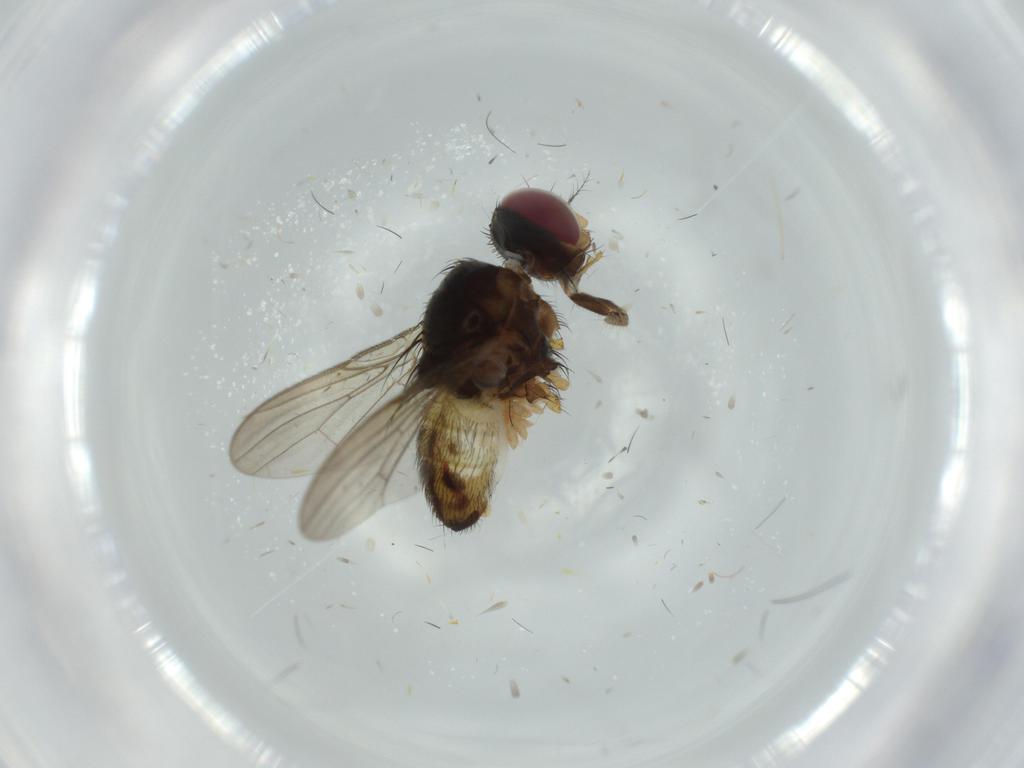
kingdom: Animalia
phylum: Arthropoda
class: Insecta
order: Diptera
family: Anthomyiidae
